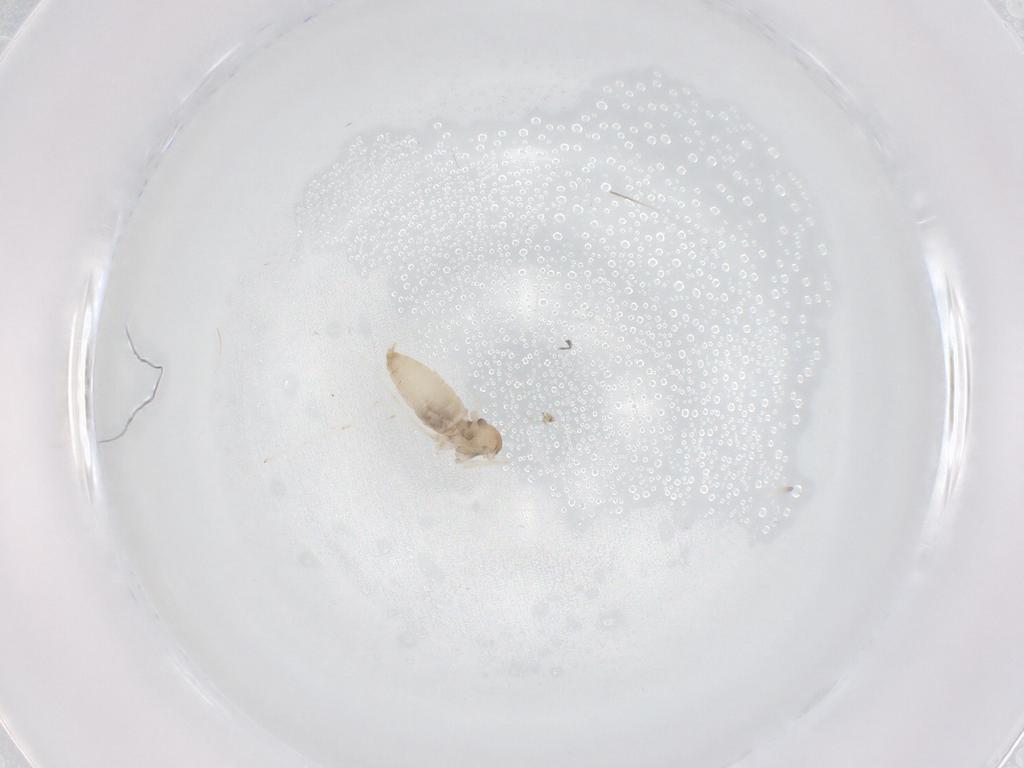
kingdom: Animalia
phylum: Arthropoda
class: Insecta
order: Diptera
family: Cecidomyiidae
